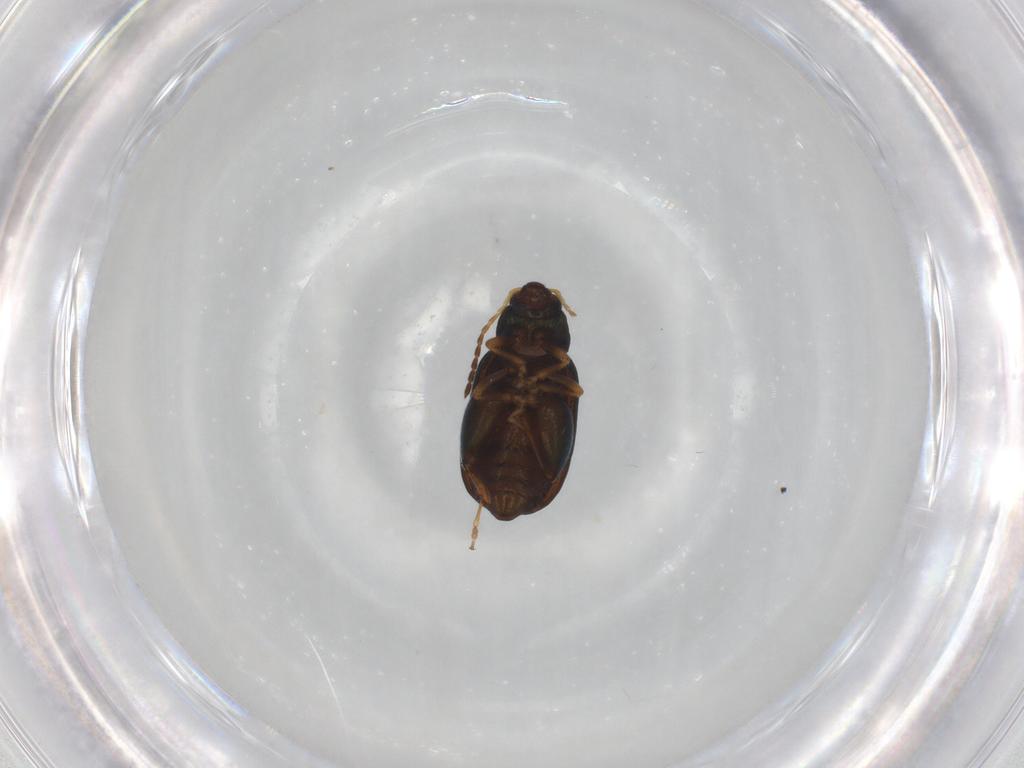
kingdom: Animalia
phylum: Arthropoda
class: Insecta
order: Coleoptera
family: Chrysomelidae
